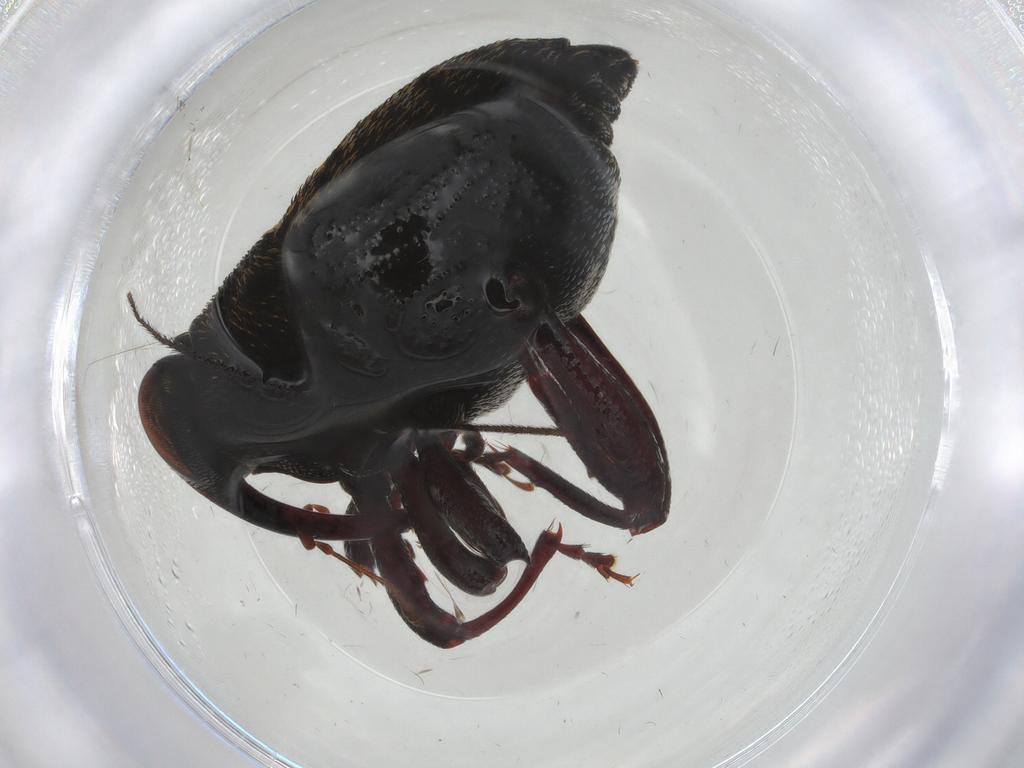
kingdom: Animalia
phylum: Arthropoda
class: Insecta
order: Coleoptera
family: Curculionidae
